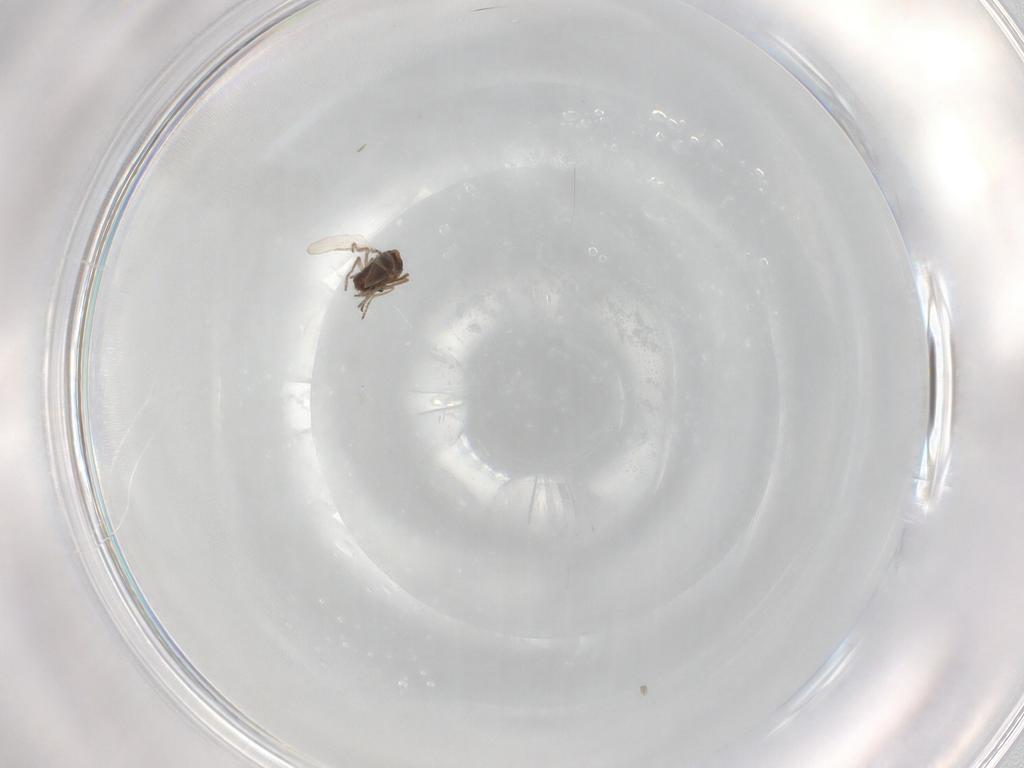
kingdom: Animalia
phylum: Arthropoda
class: Insecta
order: Diptera
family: Ceratopogonidae
